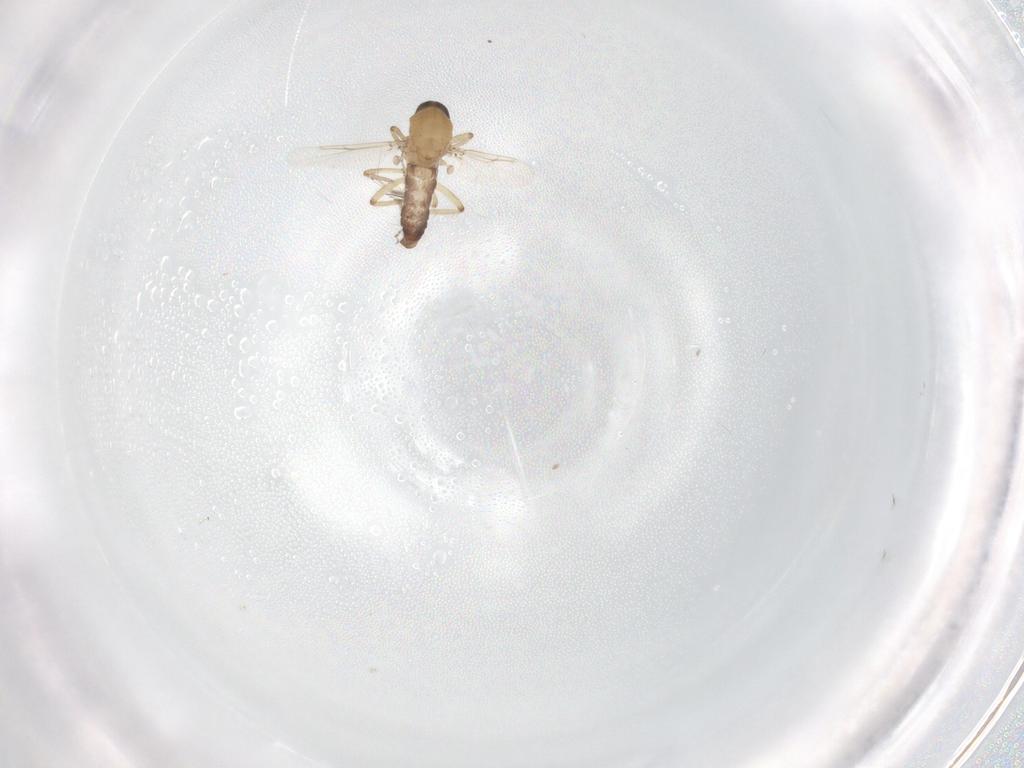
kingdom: Animalia
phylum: Arthropoda
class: Insecta
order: Diptera
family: Ceratopogonidae
